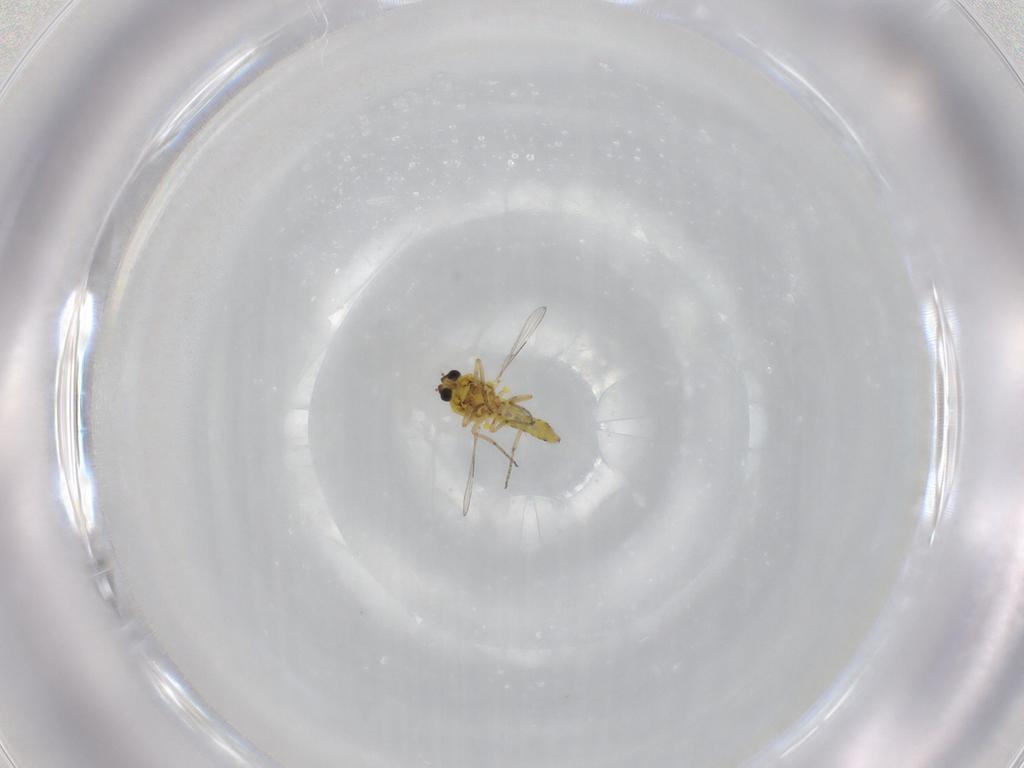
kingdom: Animalia
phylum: Arthropoda
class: Insecta
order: Diptera
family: Ceratopogonidae
